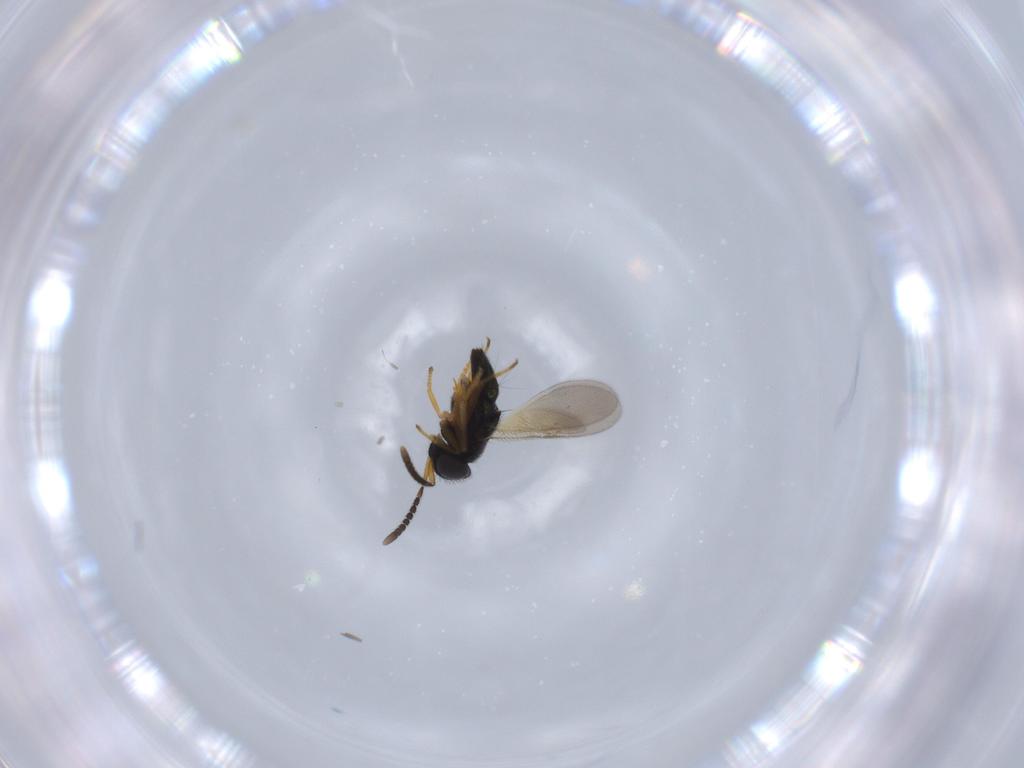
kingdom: Animalia
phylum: Arthropoda
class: Insecta
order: Hymenoptera
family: Encyrtidae
